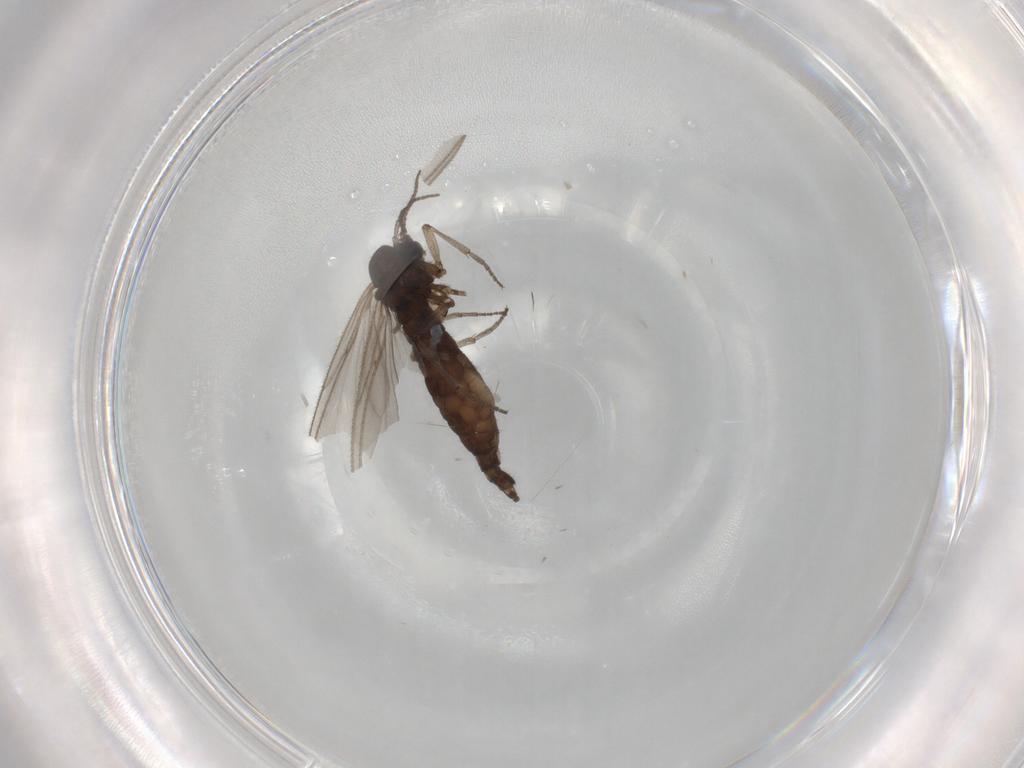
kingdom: Animalia
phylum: Arthropoda
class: Insecta
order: Diptera
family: Sciaridae
